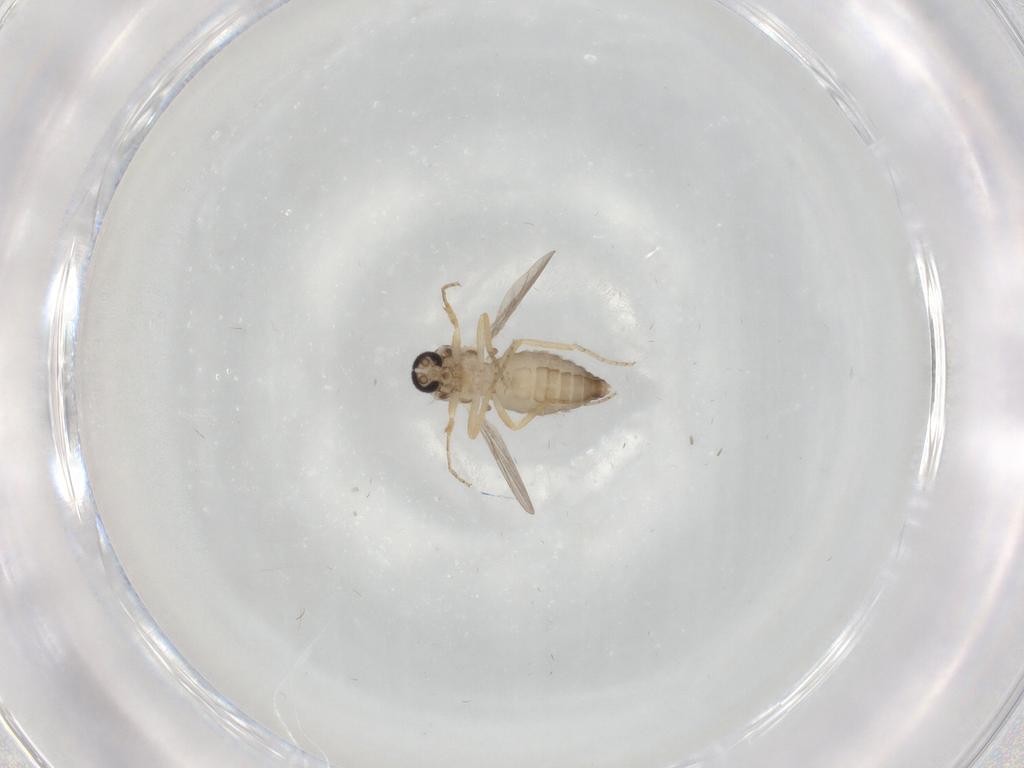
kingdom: Animalia
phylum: Arthropoda
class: Insecta
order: Diptera
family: Ceratopogonidae
